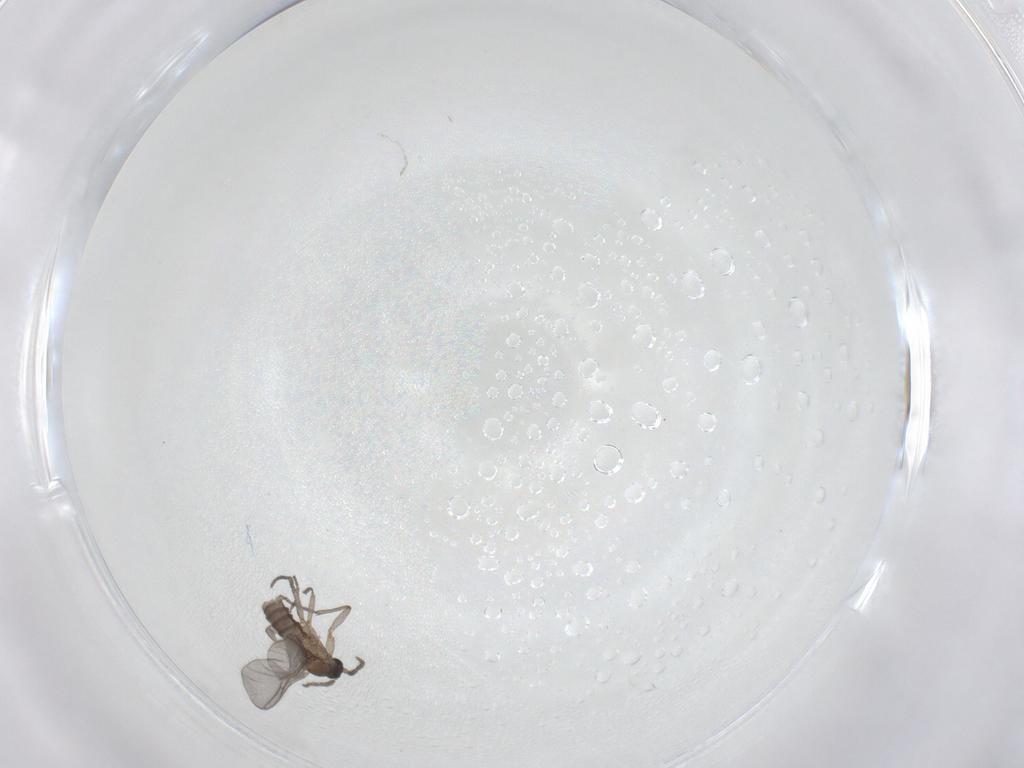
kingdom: Animalia
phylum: Arthropoda
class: Insecta
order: Diptera
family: Sciaridae
